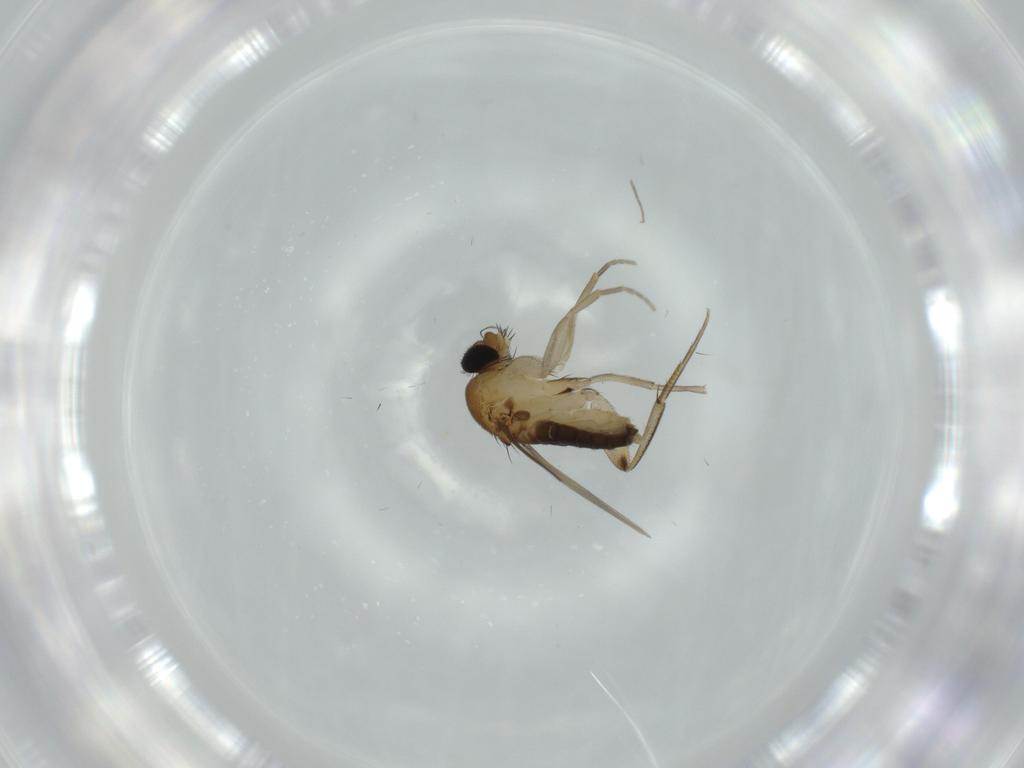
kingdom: Animalia
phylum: Arthropoda
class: Insecta
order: Diptera
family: Phoridae
